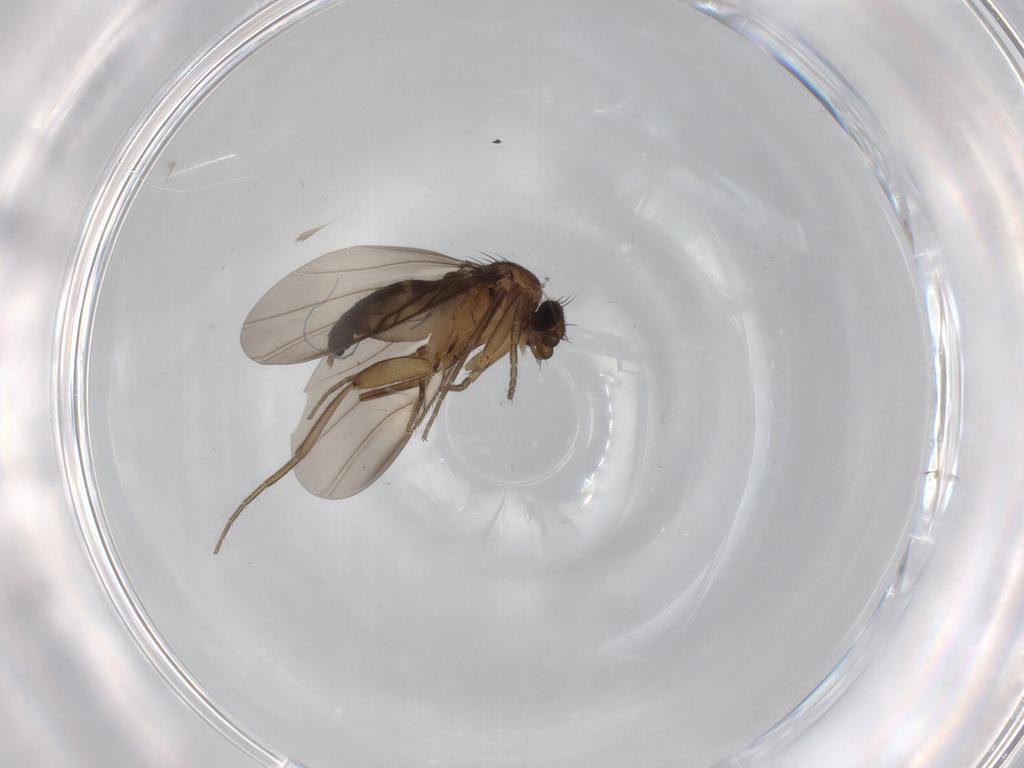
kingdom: Animalia
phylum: Arthropoda
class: Insecta
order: Diptera
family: Phoridae
